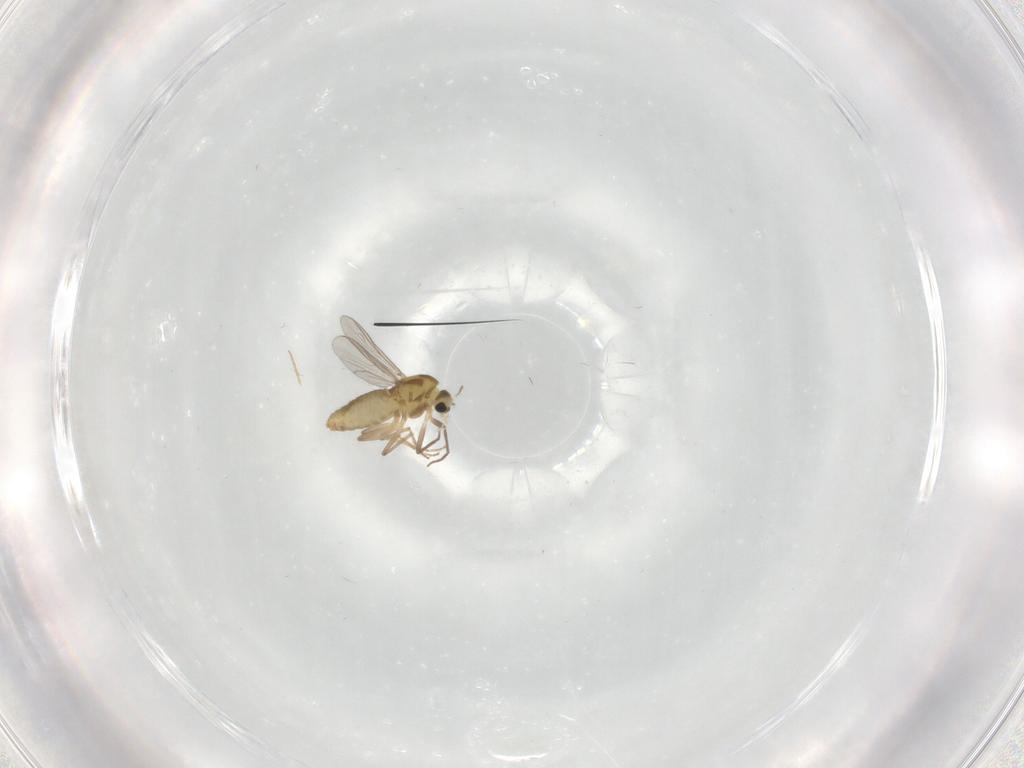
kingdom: Animalia
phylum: Arthropoda
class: Insecta
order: Diptera
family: Chironomidae
